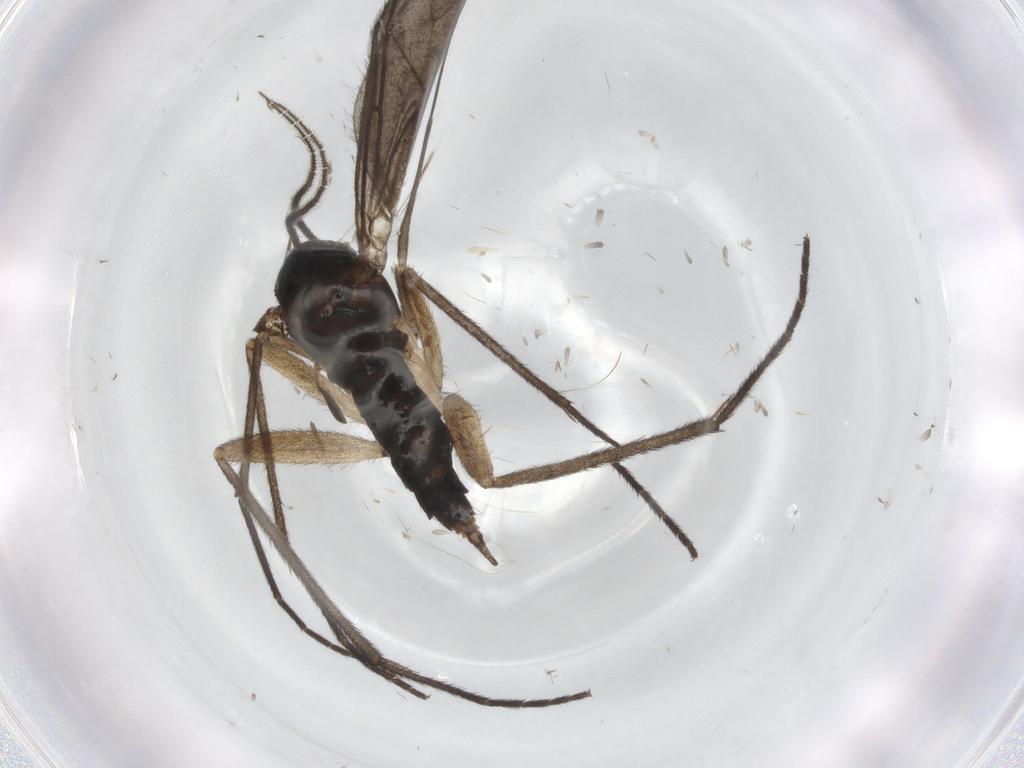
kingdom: Animalia
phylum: Arthropoda
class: Insecta
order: Diptera
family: Sciaridae
